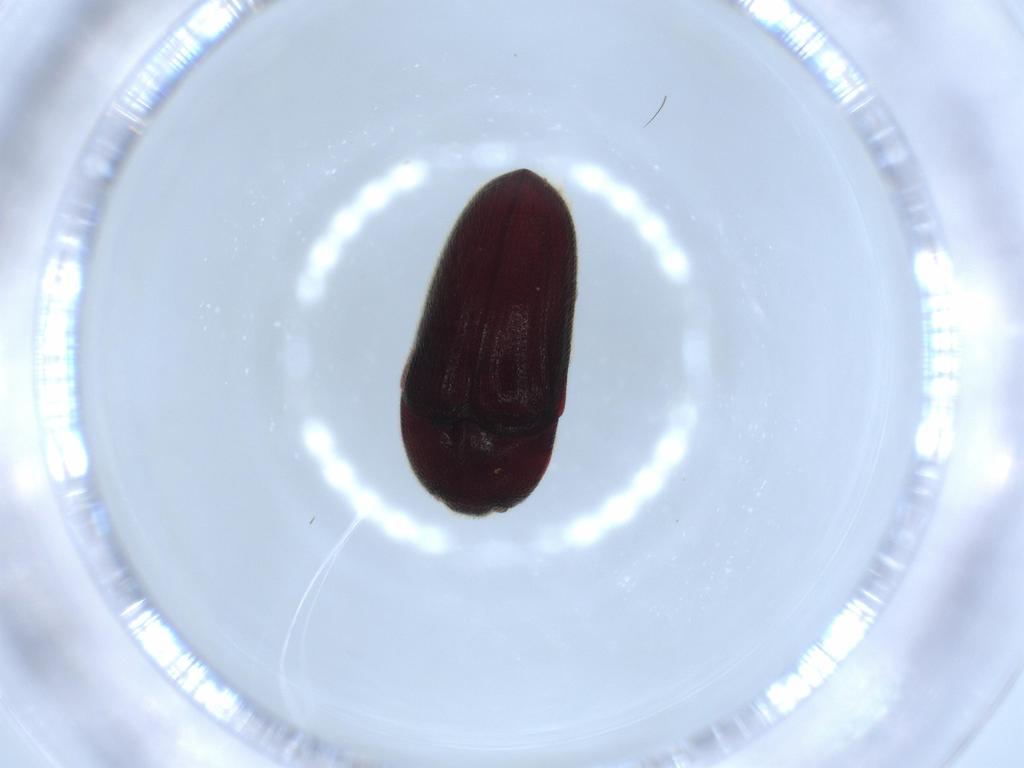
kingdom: Animalia
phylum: Arthropoda
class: Insecta
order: Coleoptera
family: Throscidae
